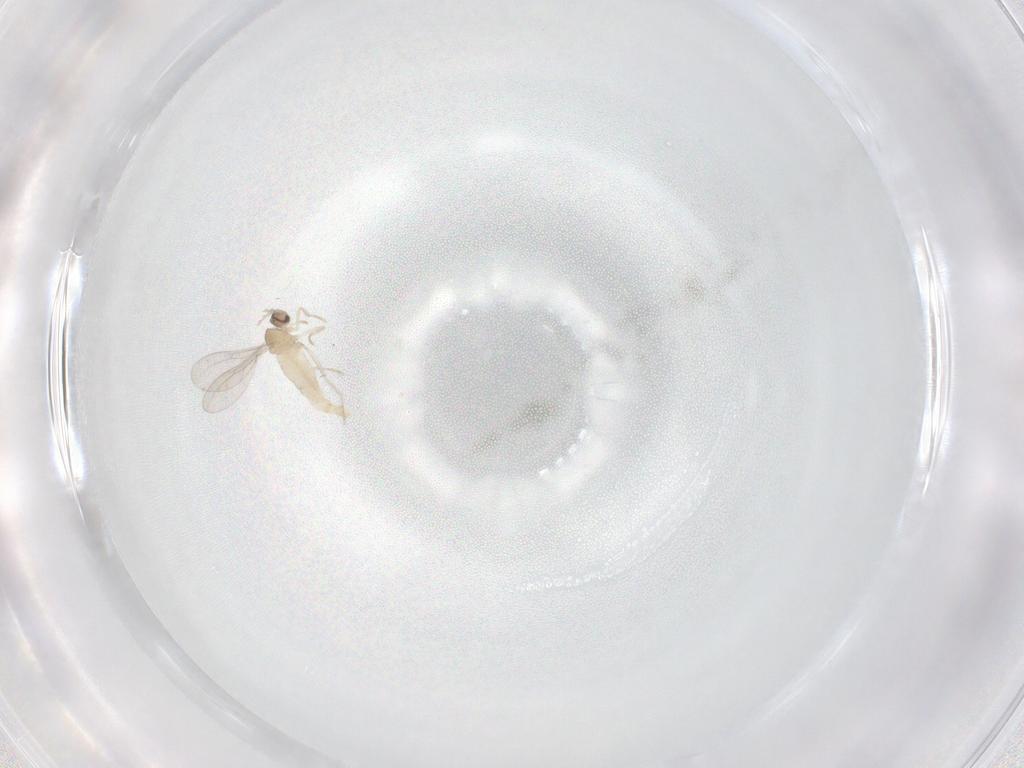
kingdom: Animalia
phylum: Arthropoda
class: Insecta
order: Diptera
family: Cecidomyiidae
